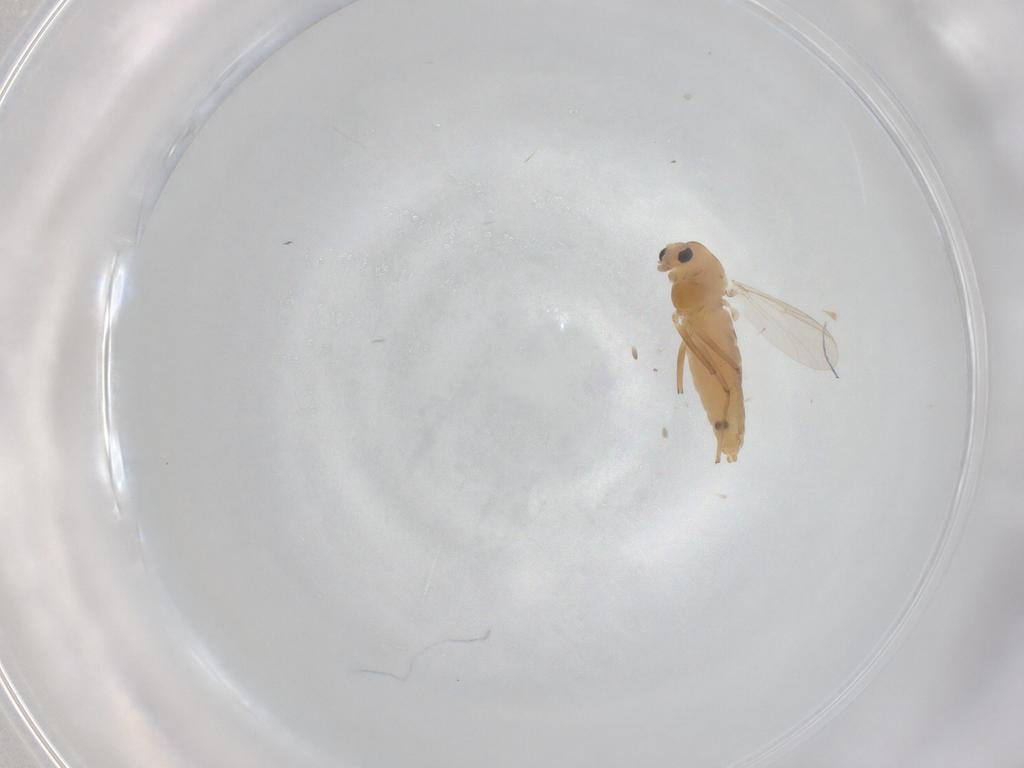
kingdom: Animalia
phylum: Arthropoda
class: Insecta
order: Diptera
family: Chironomidae
